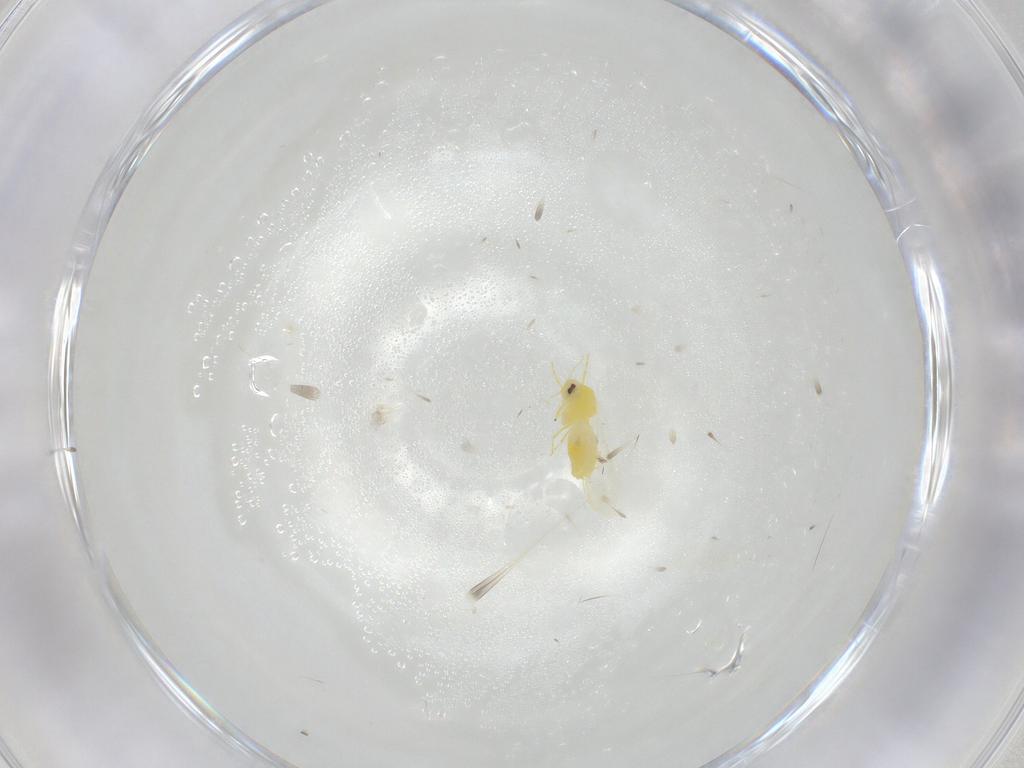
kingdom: Animalia
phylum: Arthropoda
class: Insecta
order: Hemiptera
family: Aleyrodidae
